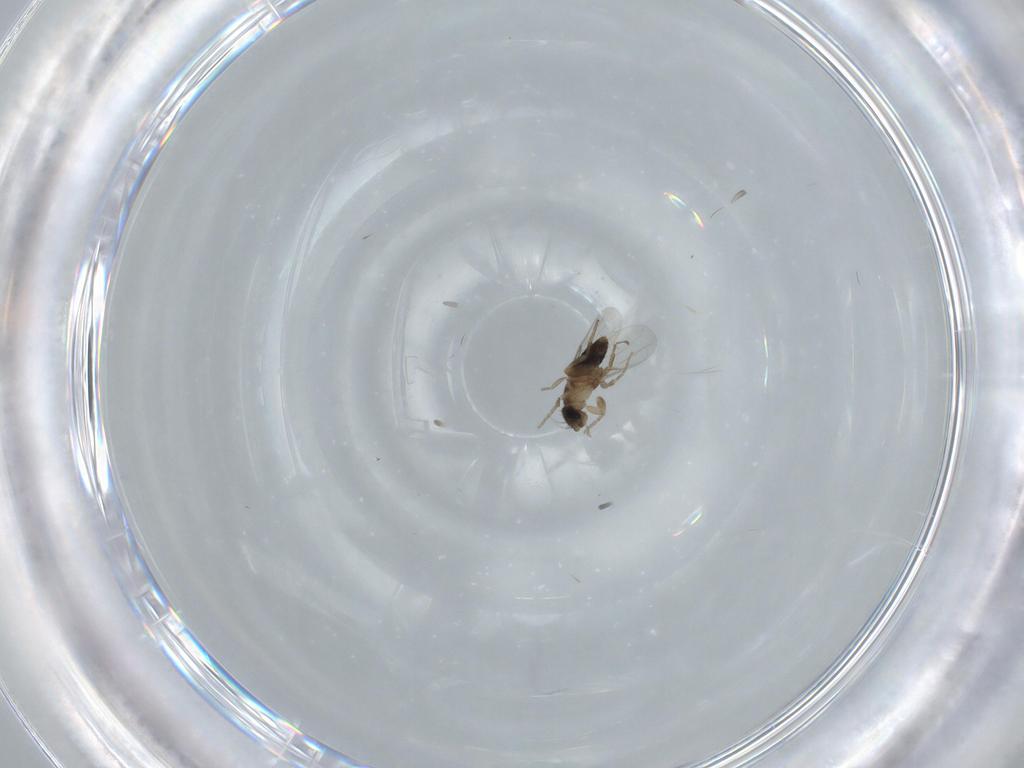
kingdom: Animalia
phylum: Arthropoda
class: Insecta
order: Diptera
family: Phoridae
